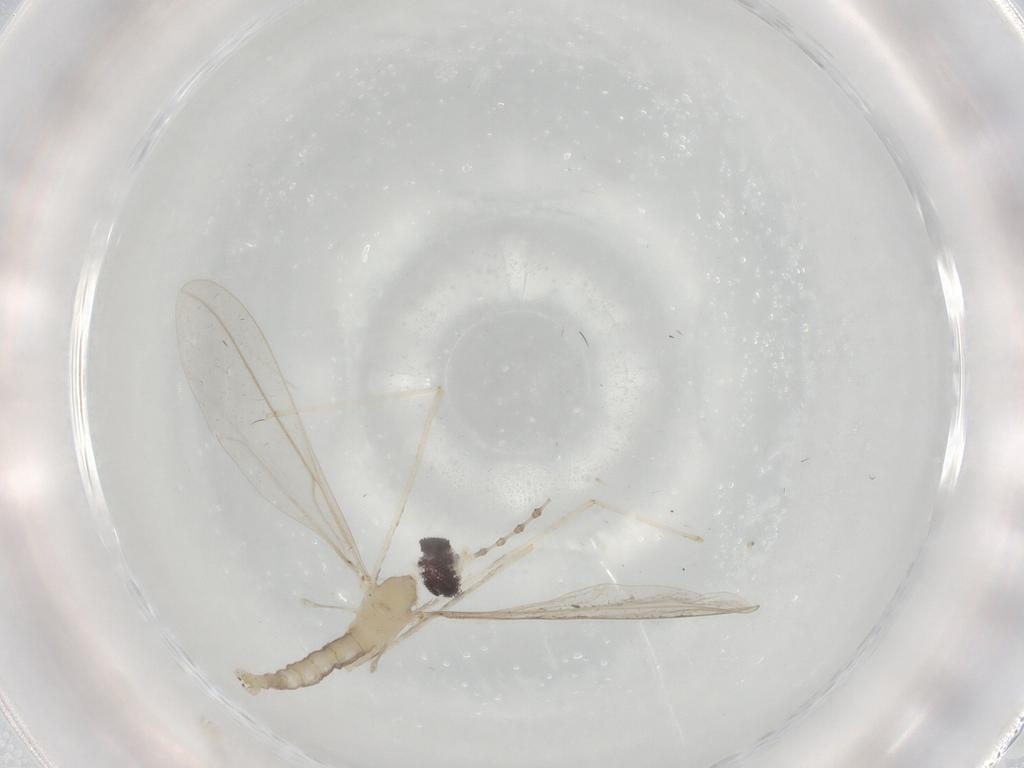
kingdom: Animalia
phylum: Arthropoda
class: Insecta
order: Diptera
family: Cecidomyiidae
